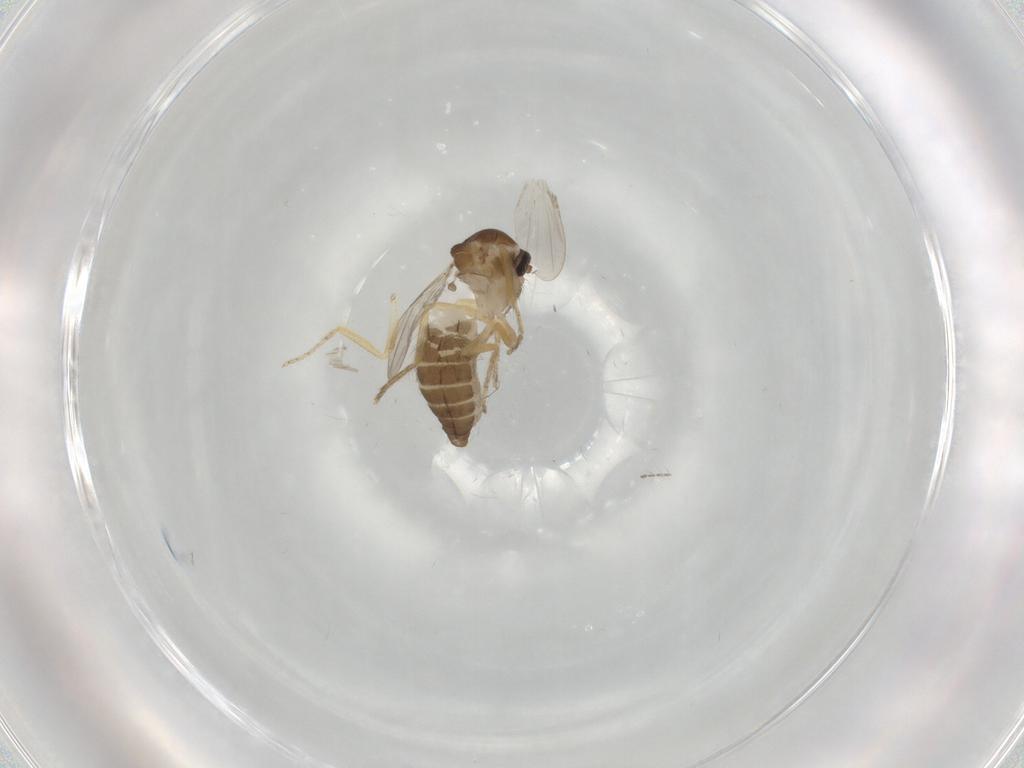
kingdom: Animalia
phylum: Arthropoda
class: Insecta
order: Diptera
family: Ceratopogonidae
